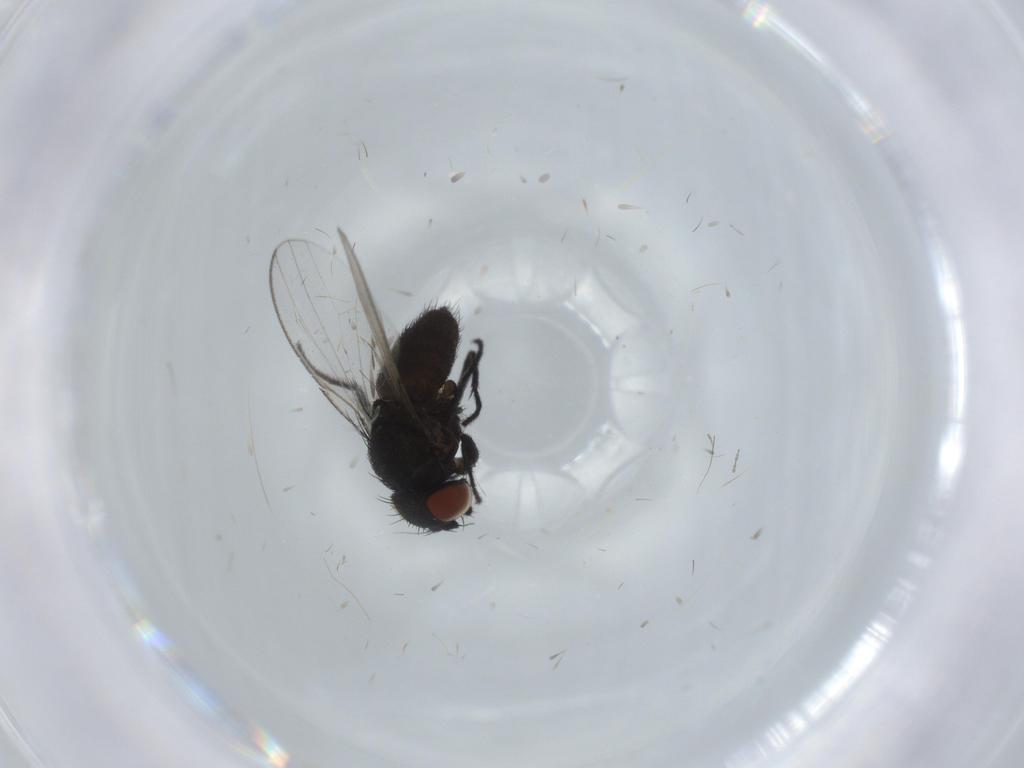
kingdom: Animalia
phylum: Arthropoda
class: Insecta
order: Diptera
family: Milichiidae
